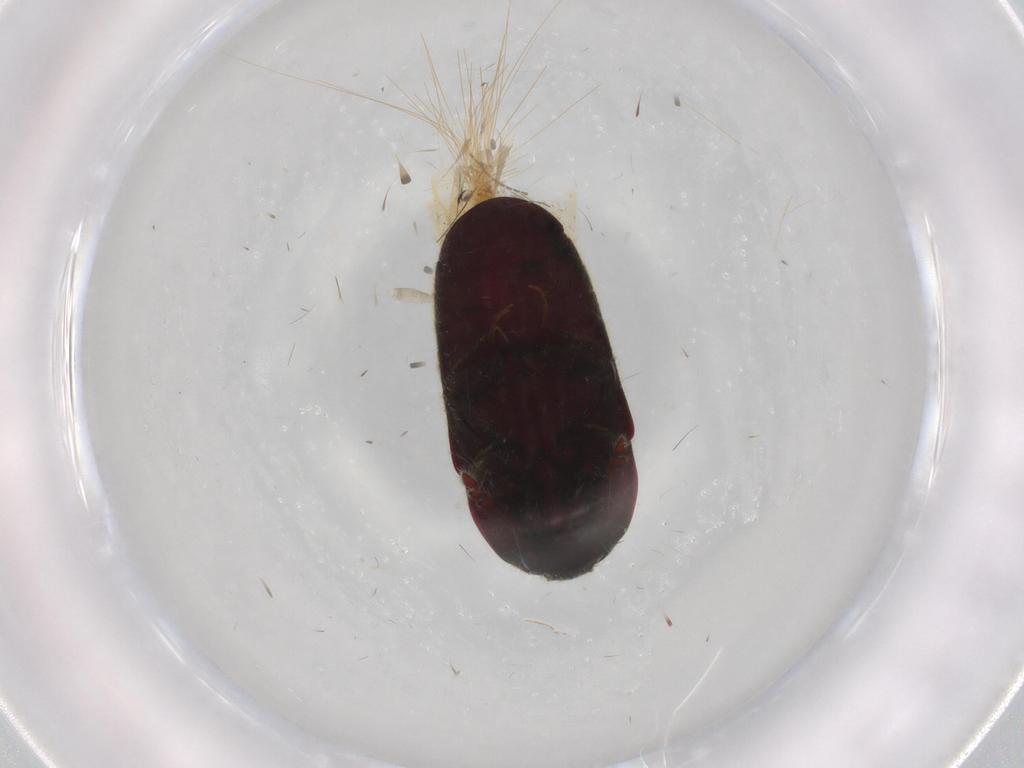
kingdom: Animalia
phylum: Arthropoda
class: Insecta
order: Coleoptera
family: Throscidae
